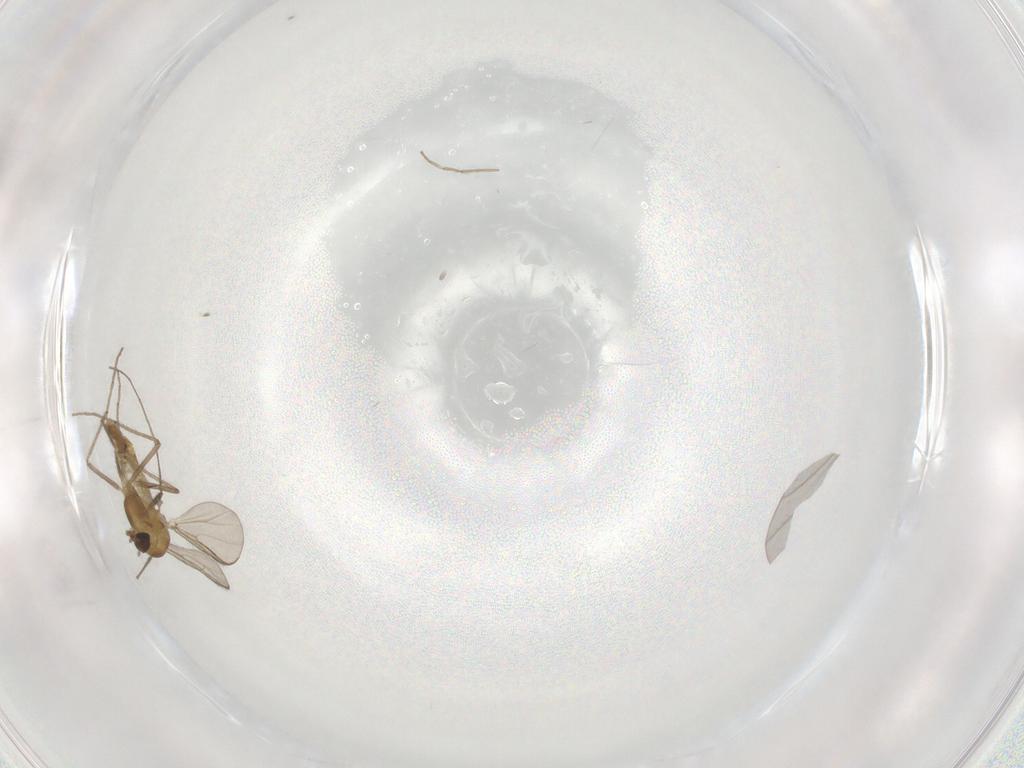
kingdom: Animalia
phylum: Arthropoda
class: Insecta
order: Diptera
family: Chironomidae
